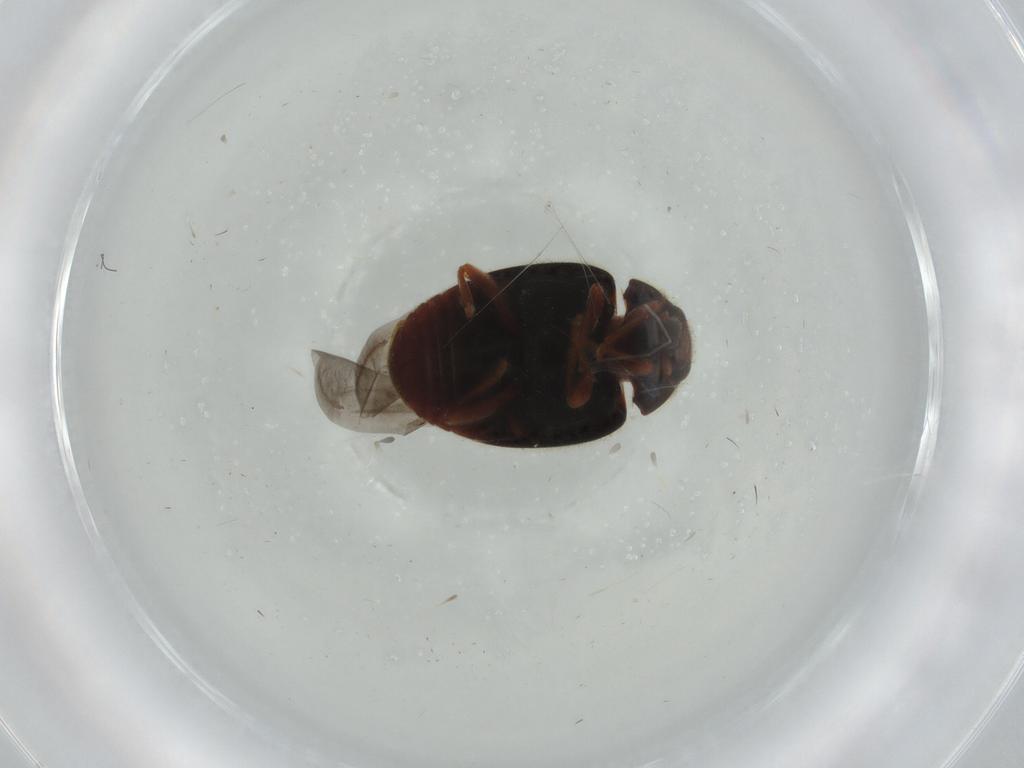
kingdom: Animalia
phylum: Arthropoda
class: Insecta
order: Coleoptera
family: Coccinellidae
